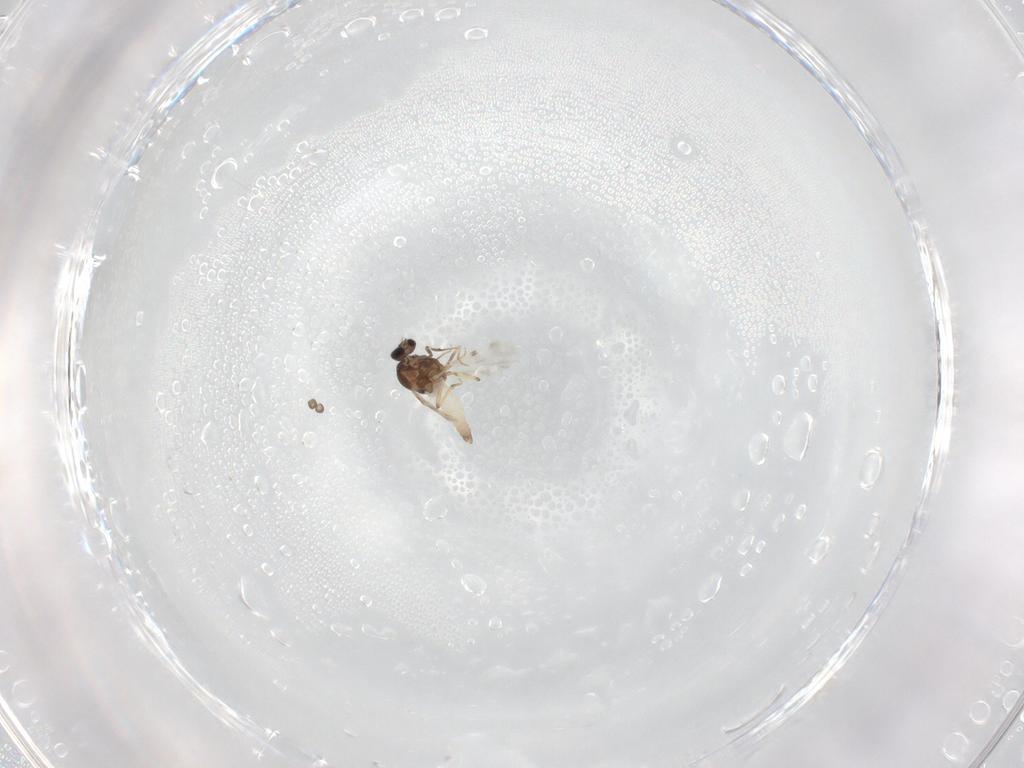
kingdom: Animalia
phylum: Arthropoda
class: Insecta
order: Diptera
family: Ceratopogonidae
